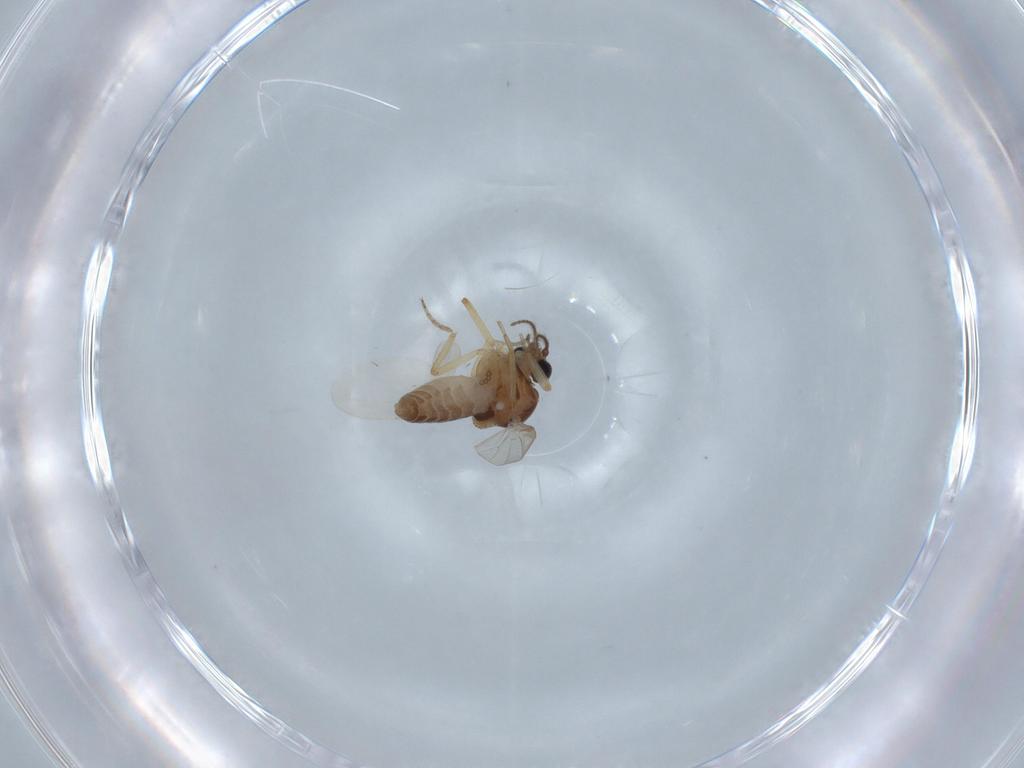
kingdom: Animalia
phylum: Arthropoda
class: Insecta
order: Diptera
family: Ceratopogonidae
